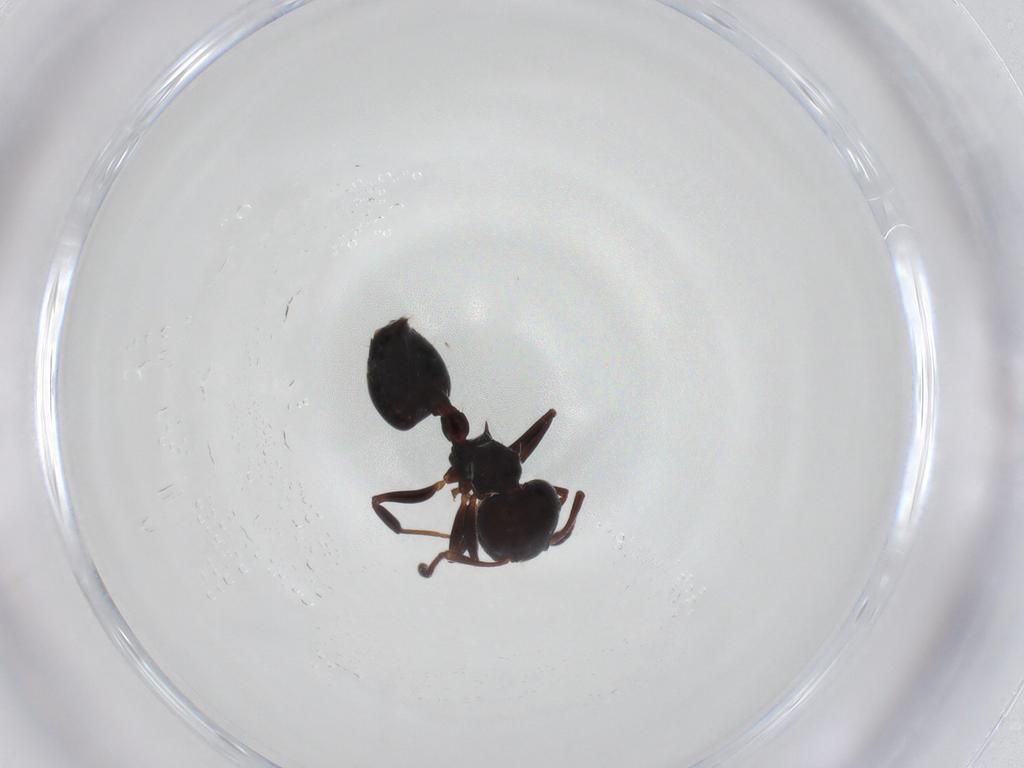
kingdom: Animalia
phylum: Arthropoda
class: Insecta
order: Hymenoptera
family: Formicidae
